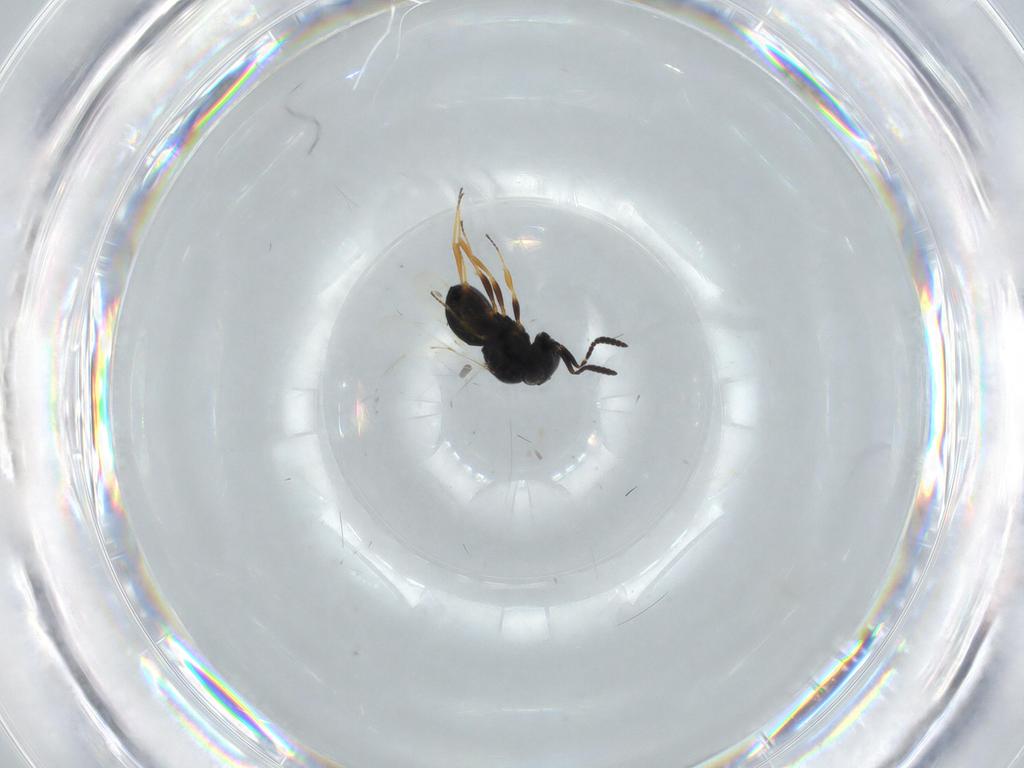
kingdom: Animalia
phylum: Arthropoda
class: Insecta
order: Hymenoptera
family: Scelionidae
